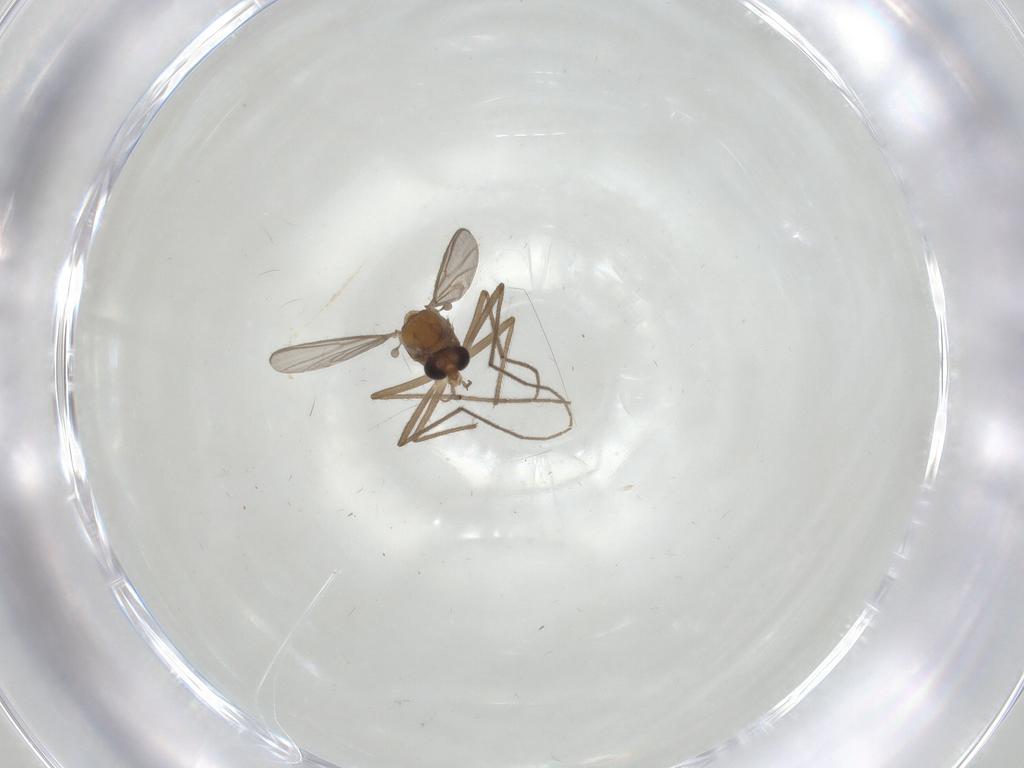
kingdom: Animalia
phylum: Arthropoda
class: Insecta
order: Diptera
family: Chironomidae
